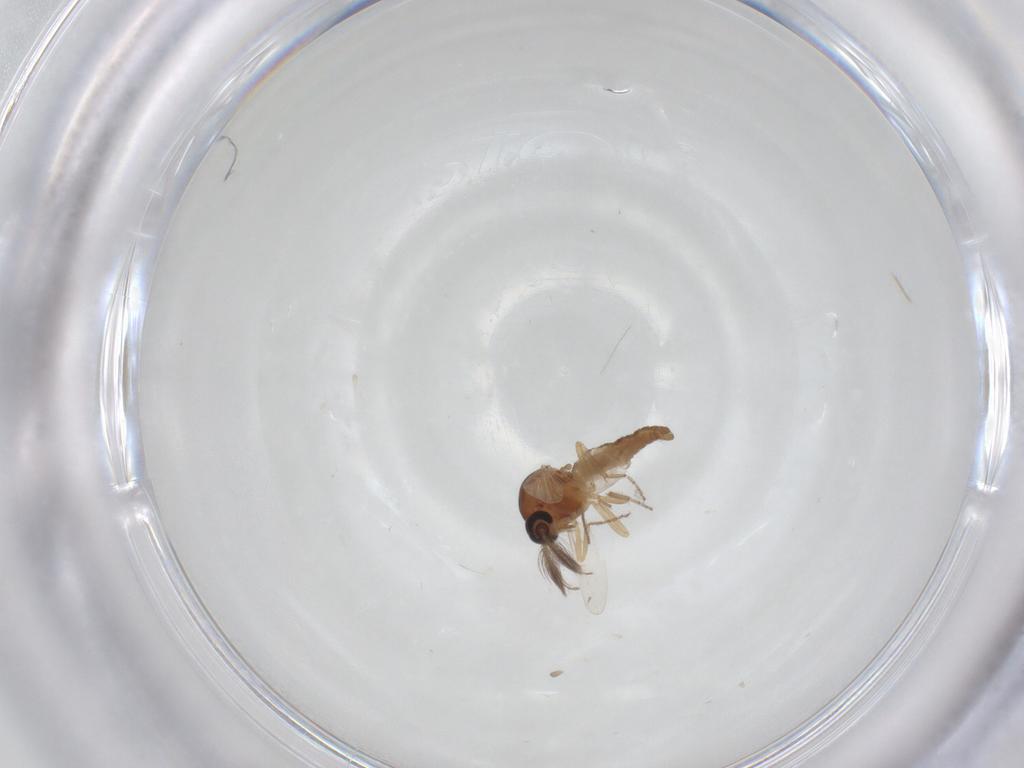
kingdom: Animalia
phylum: Arthropoda
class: Insecta
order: Diptera
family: Ceratopogonidae
